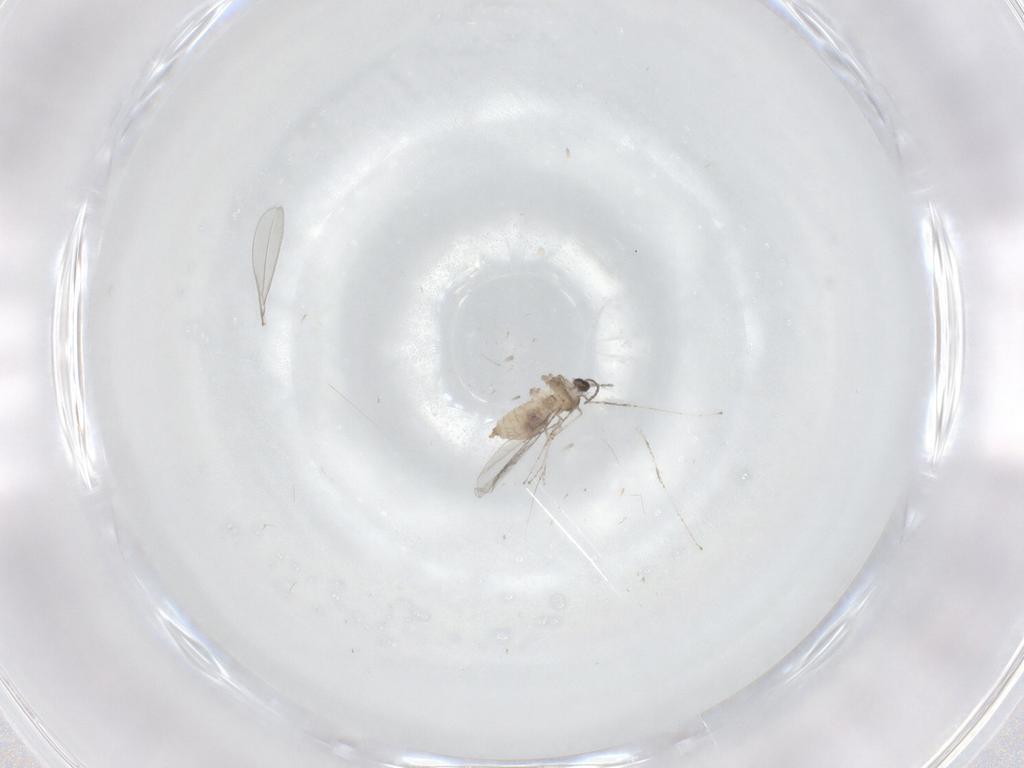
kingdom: Animalia
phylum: Arthropoda
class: Insecta
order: Diptera
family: Cecidomyiidae
